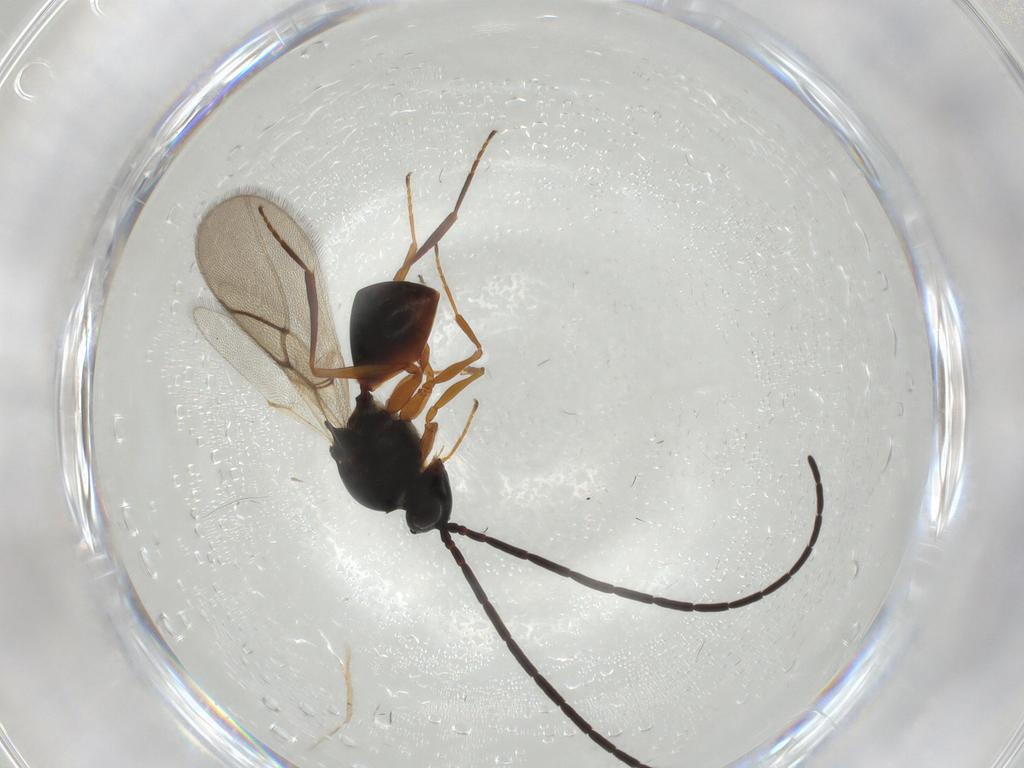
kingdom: Animalia
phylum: Arthropoda
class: Insecta
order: Hymenoptera
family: Figitidae
